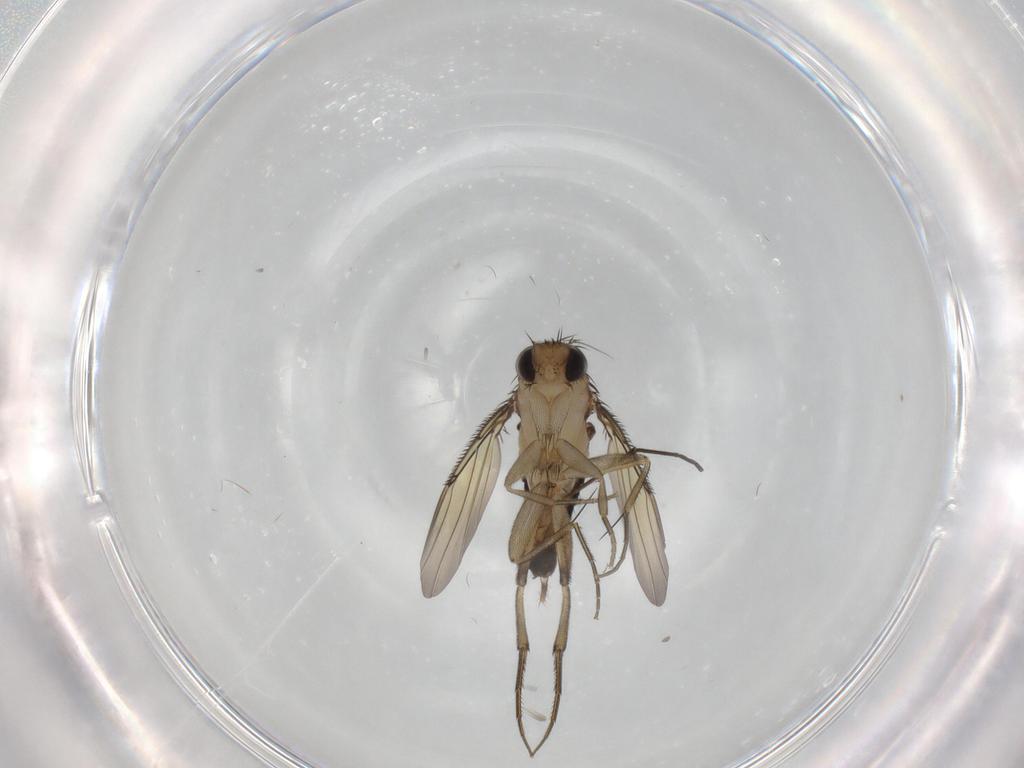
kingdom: Animalia
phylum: Arthropoda
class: Insecta
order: Diptera
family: Phoridae
